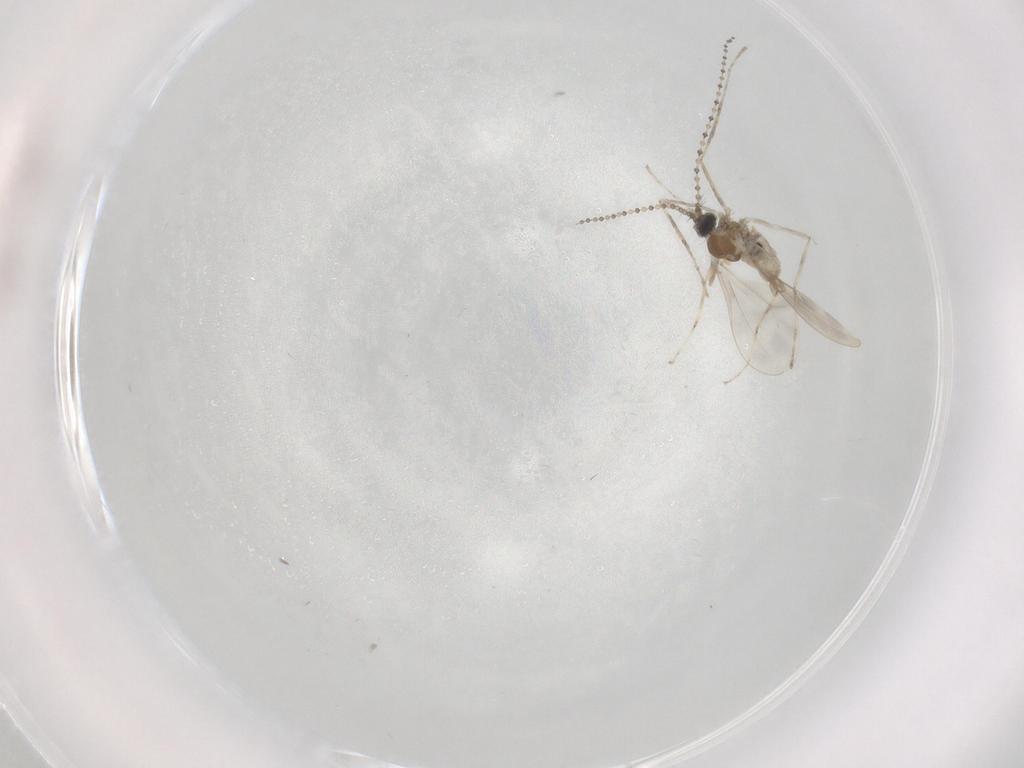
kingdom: Animalia
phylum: Arthropoda
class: Insecta
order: Diptera
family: Cecidomyiidae
